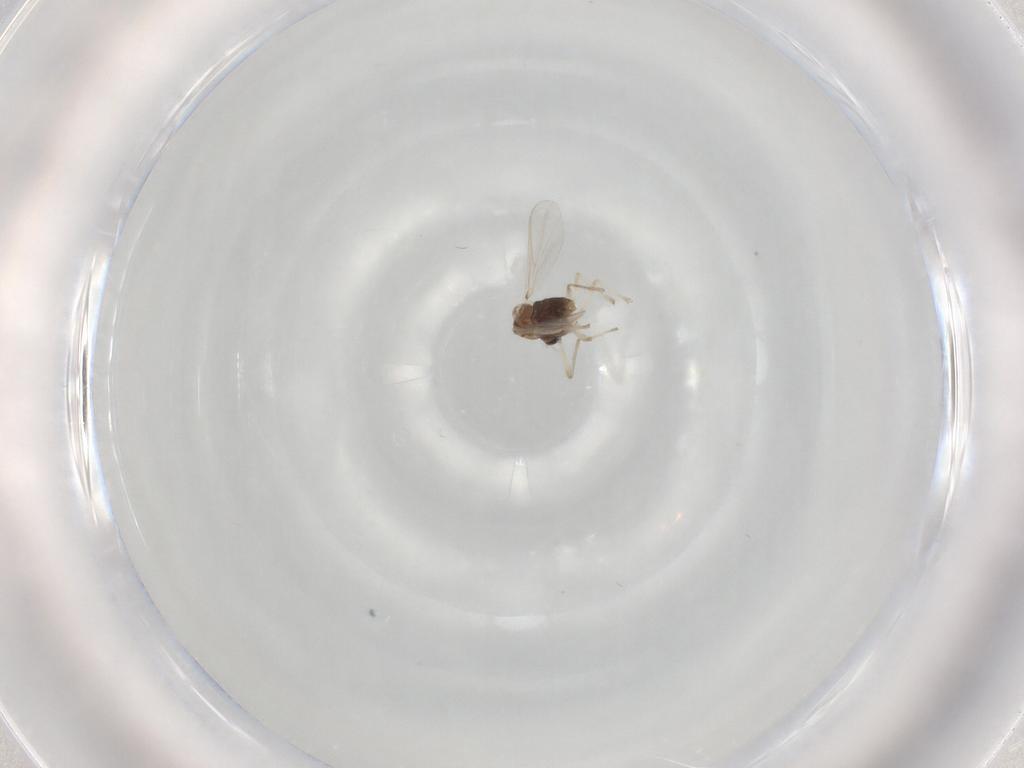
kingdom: Animalia
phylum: Arthropoda
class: Insecta
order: Diptera
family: Chironomidae
